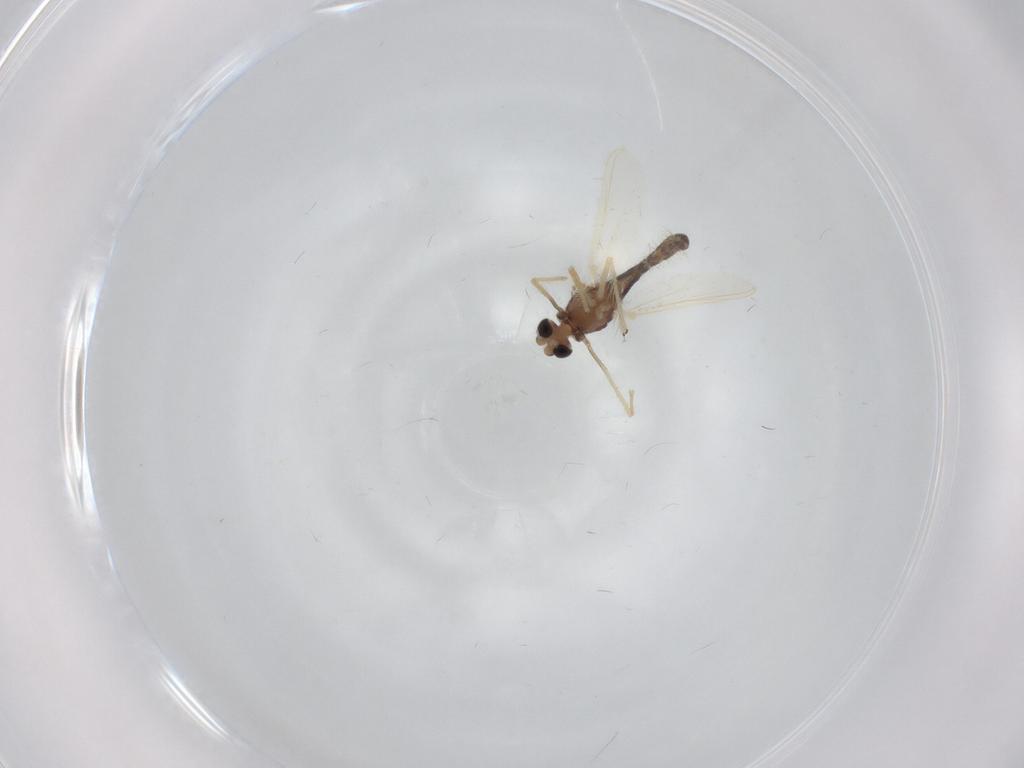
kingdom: Animalia
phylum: Arthropoda
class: Insecta
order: Diptera
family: Chironomidae
